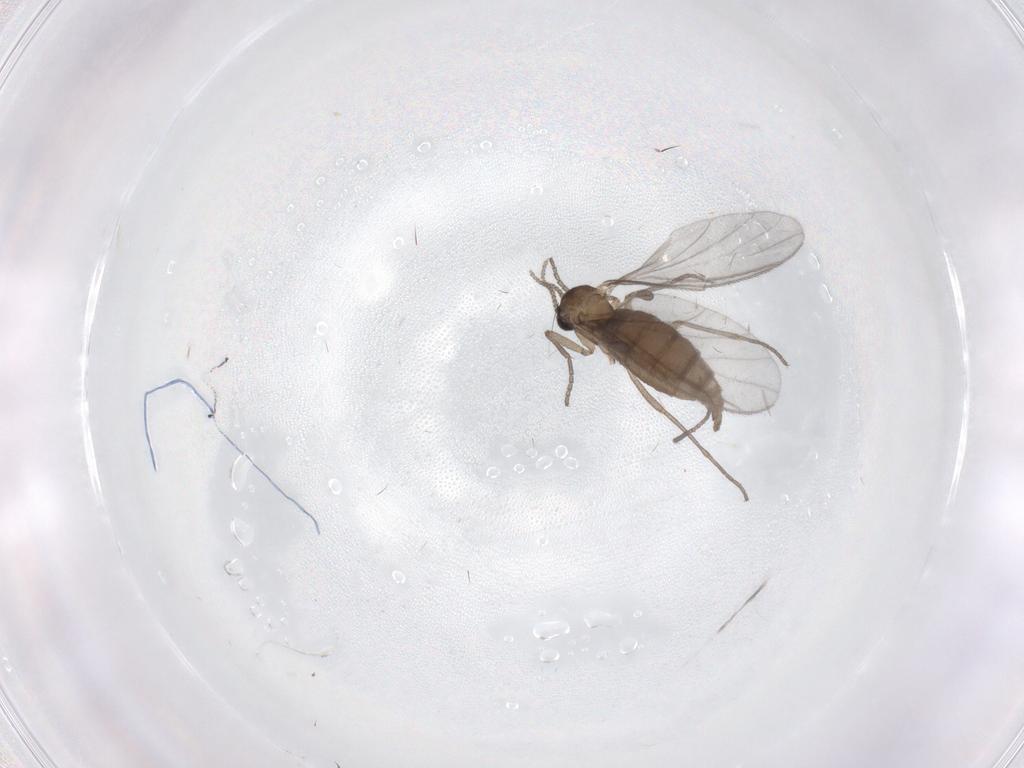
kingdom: Animalia
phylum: Arthropoda
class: Insecta
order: Diptera
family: Sciaridae
